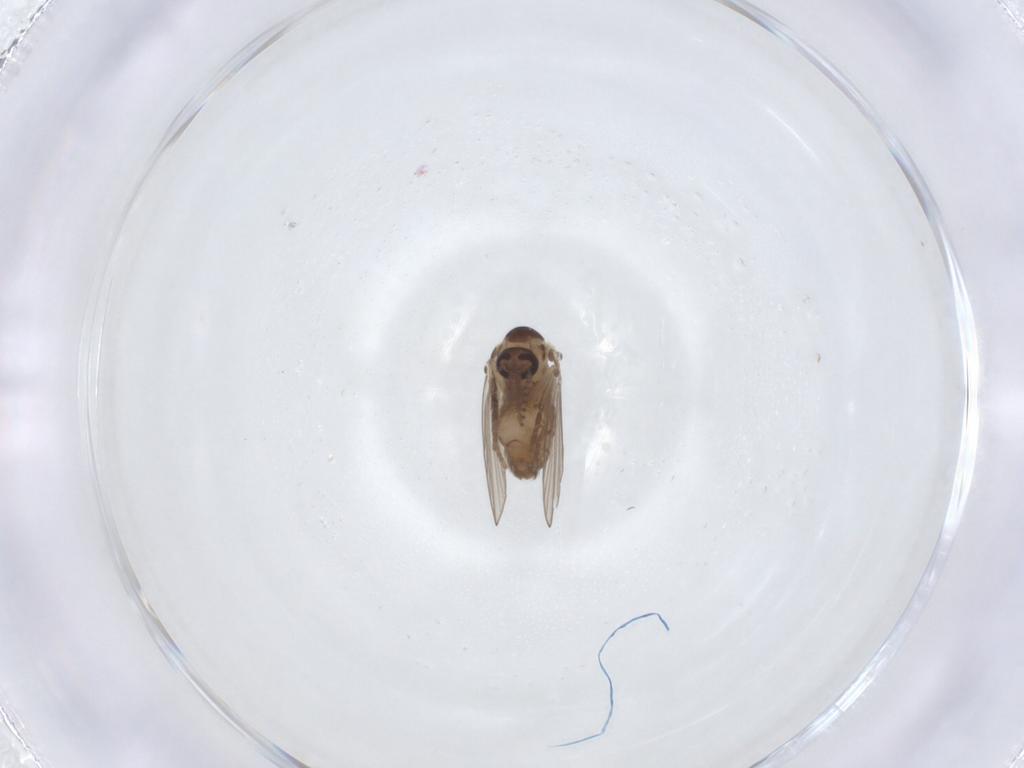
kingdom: Animalia
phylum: Arthropoda
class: Insecta
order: Diptera
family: Psychodidae
